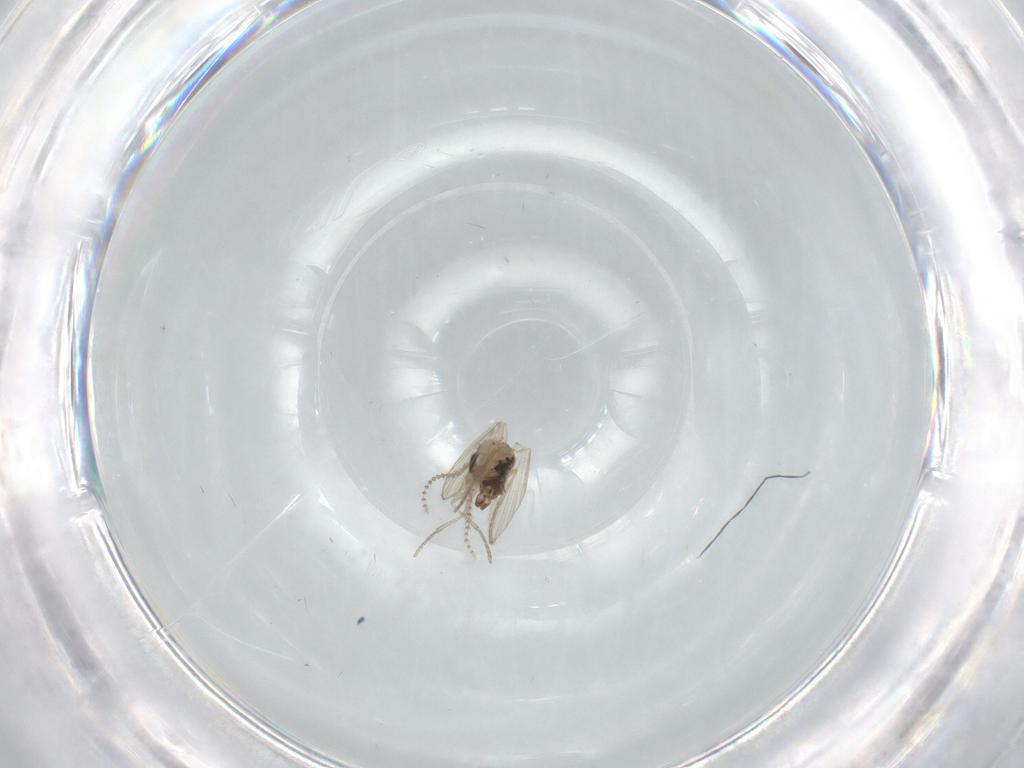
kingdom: Animalia
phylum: Arthropoda
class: Insecta
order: Diptera
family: Psychodidae
